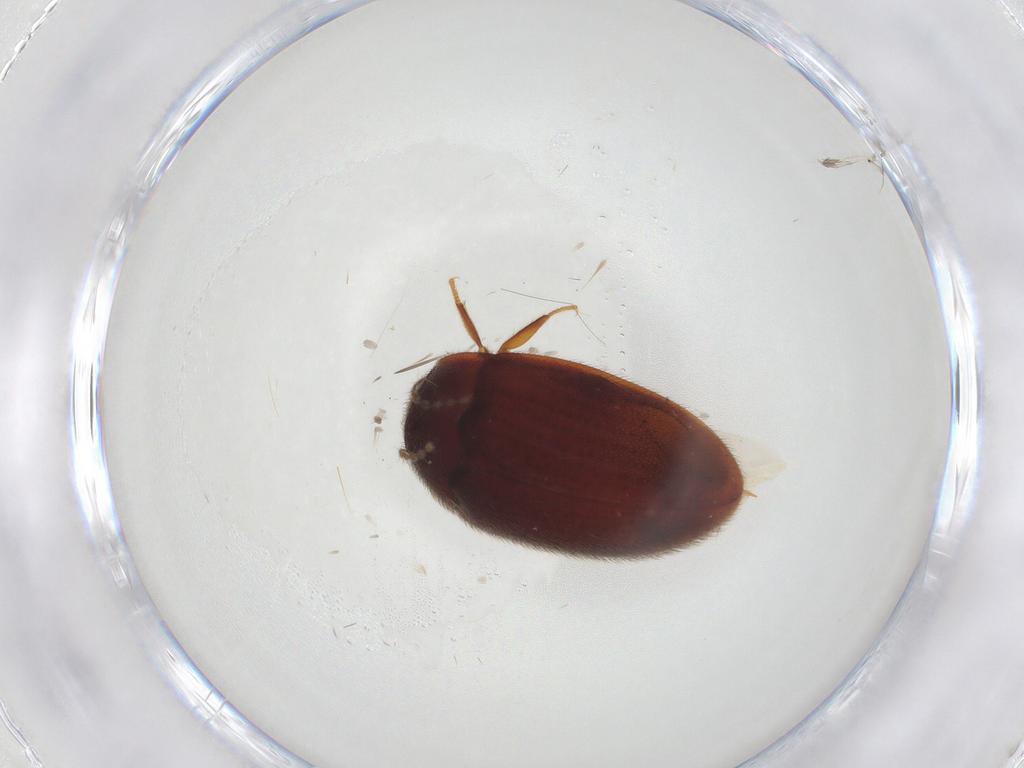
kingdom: Animalia
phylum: Arthropoda
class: Insecta
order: Coleoptera
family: Limnichidae
